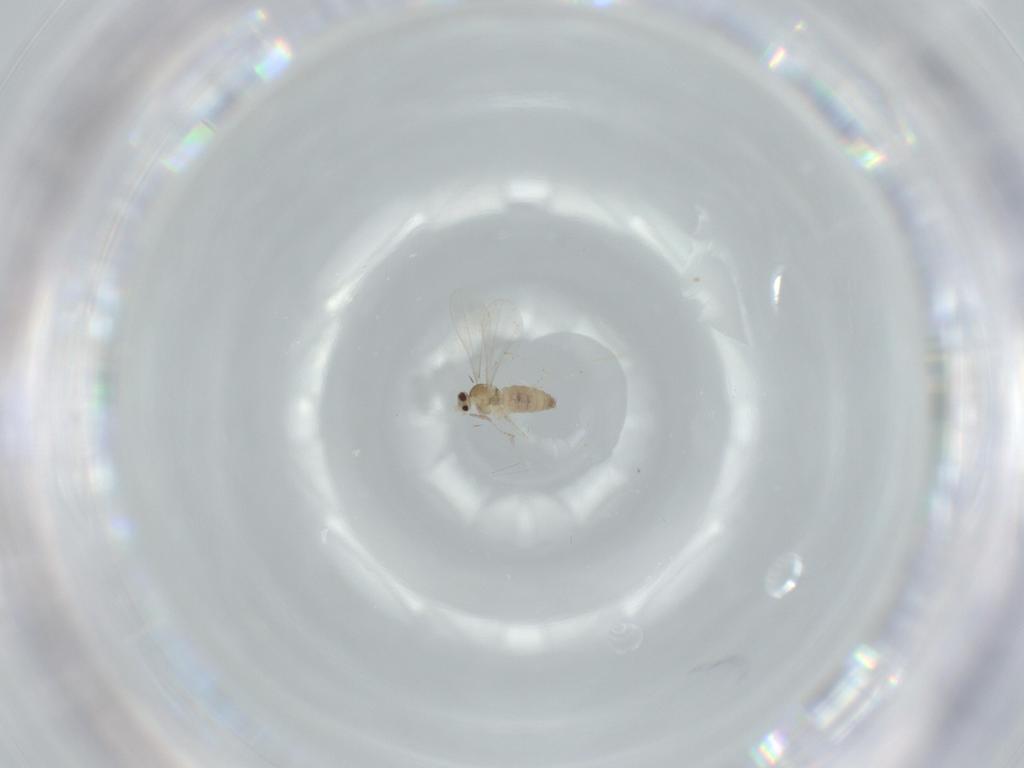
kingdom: Animalia
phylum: Arthropoda
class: Insecta
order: Diptera
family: Cecidomyiidae
